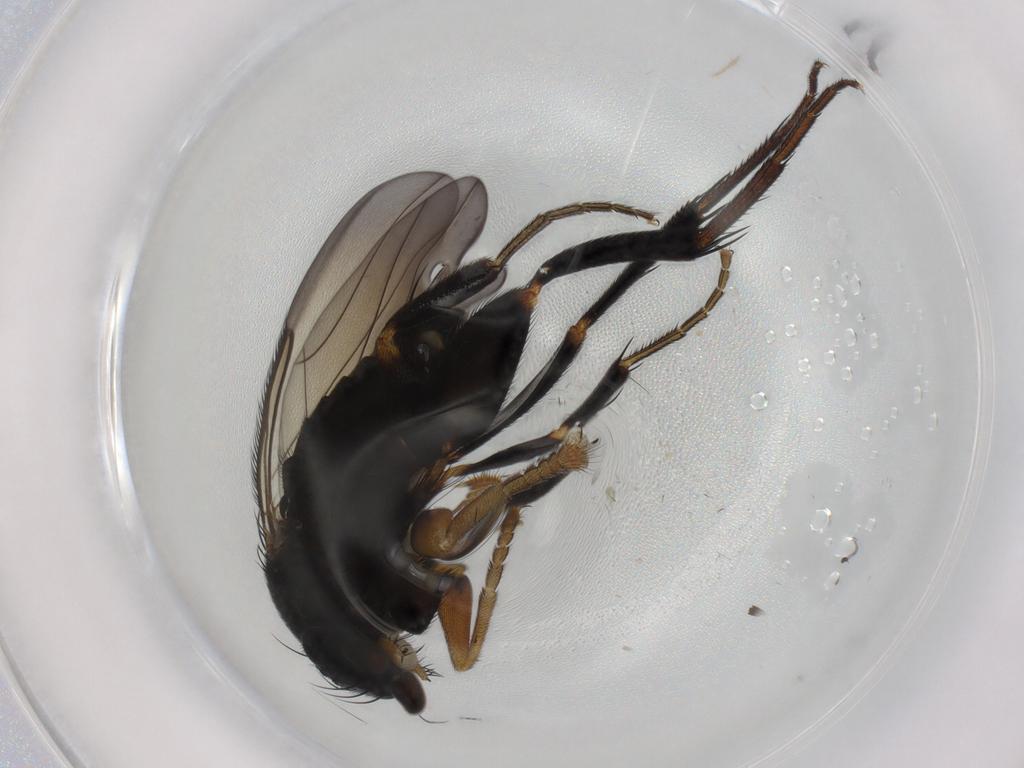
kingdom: Animalia
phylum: Arthropoda
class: Insecta
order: Diptera
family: Phoridae
